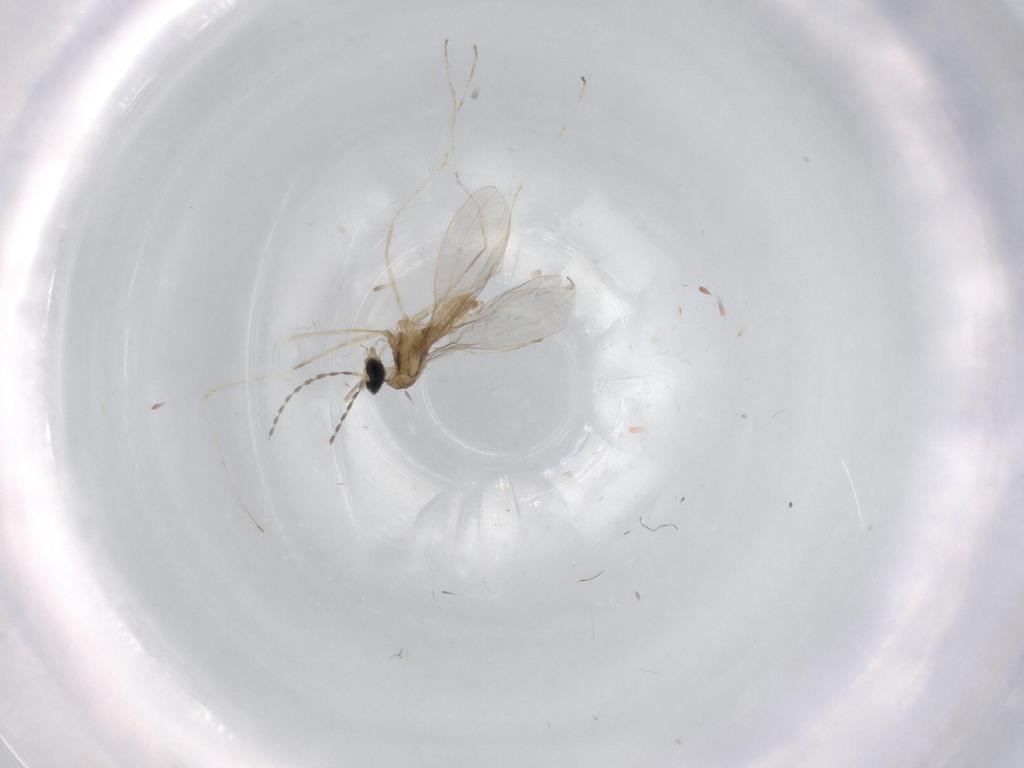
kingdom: Animalia
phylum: Arthropoda
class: Insecta
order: Diptera
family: Cecidomyiidae
